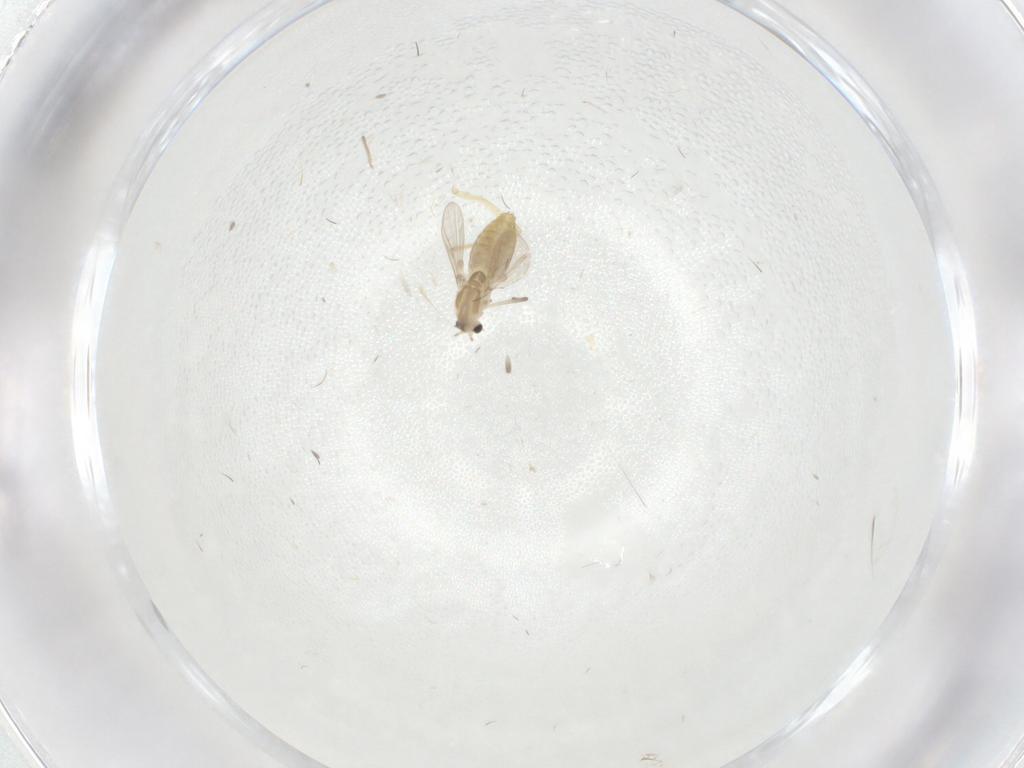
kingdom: Animalia
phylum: Arthropoda
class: Insecta
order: Diptera
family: Chironomidae
